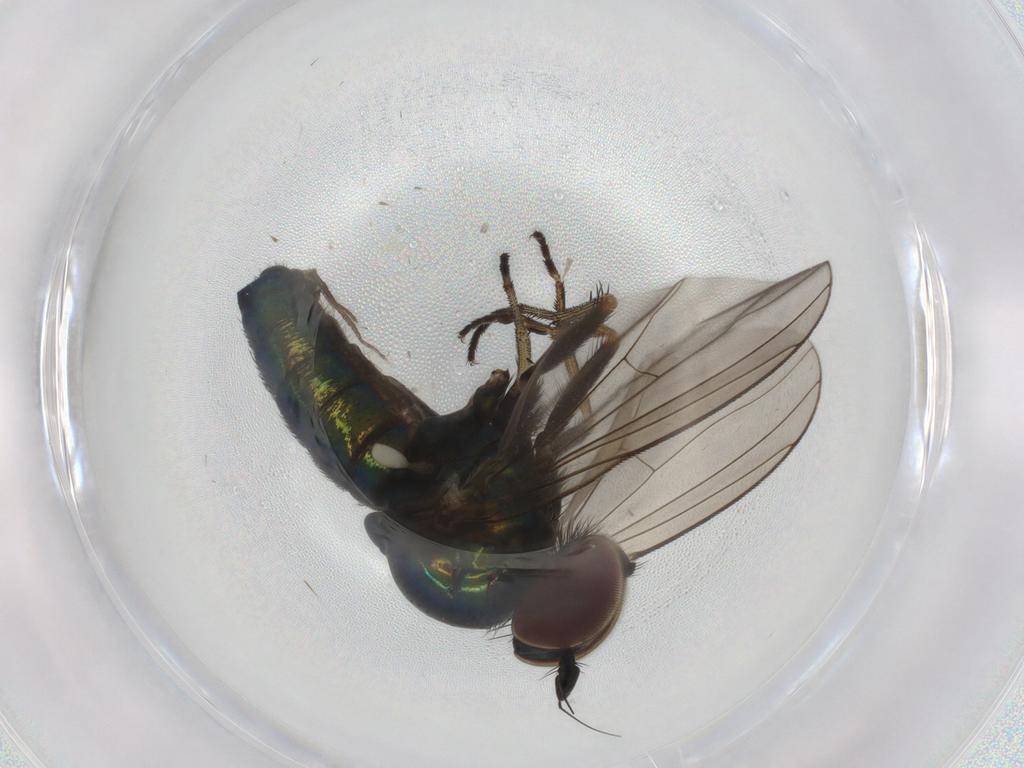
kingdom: Animalia
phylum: Arthropoda
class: Insecta
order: Diptera
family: Dolichopodidae
